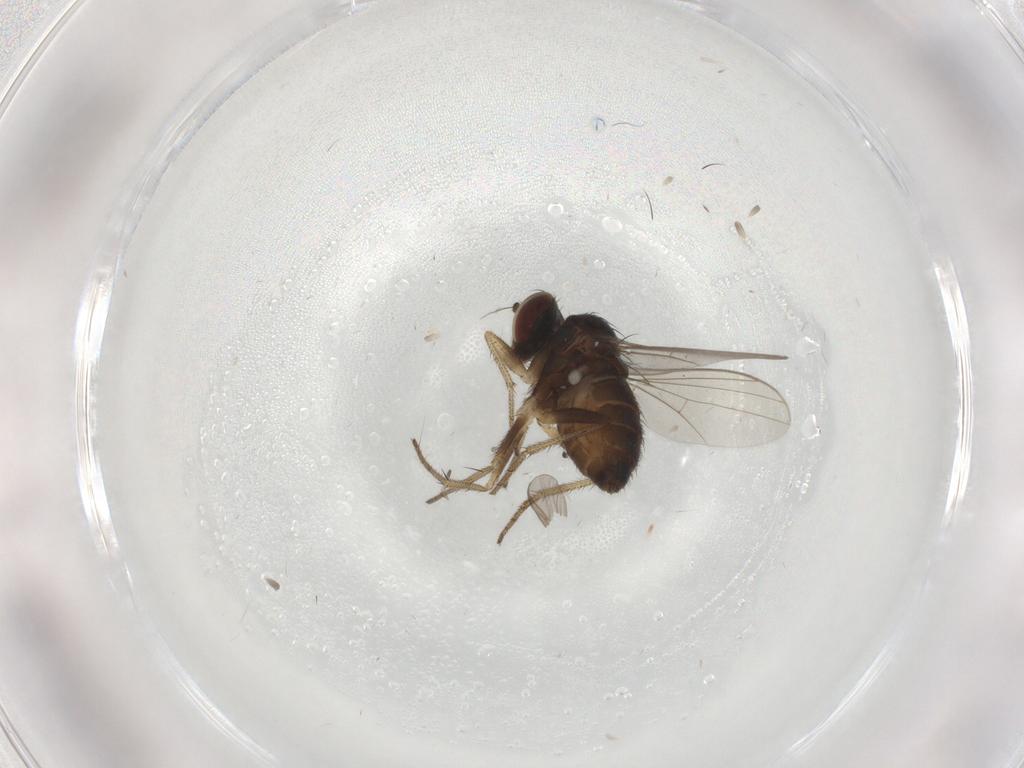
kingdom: Animalia
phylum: Arthropoda
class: Insecta
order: Diptera
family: Dolichopodidae
